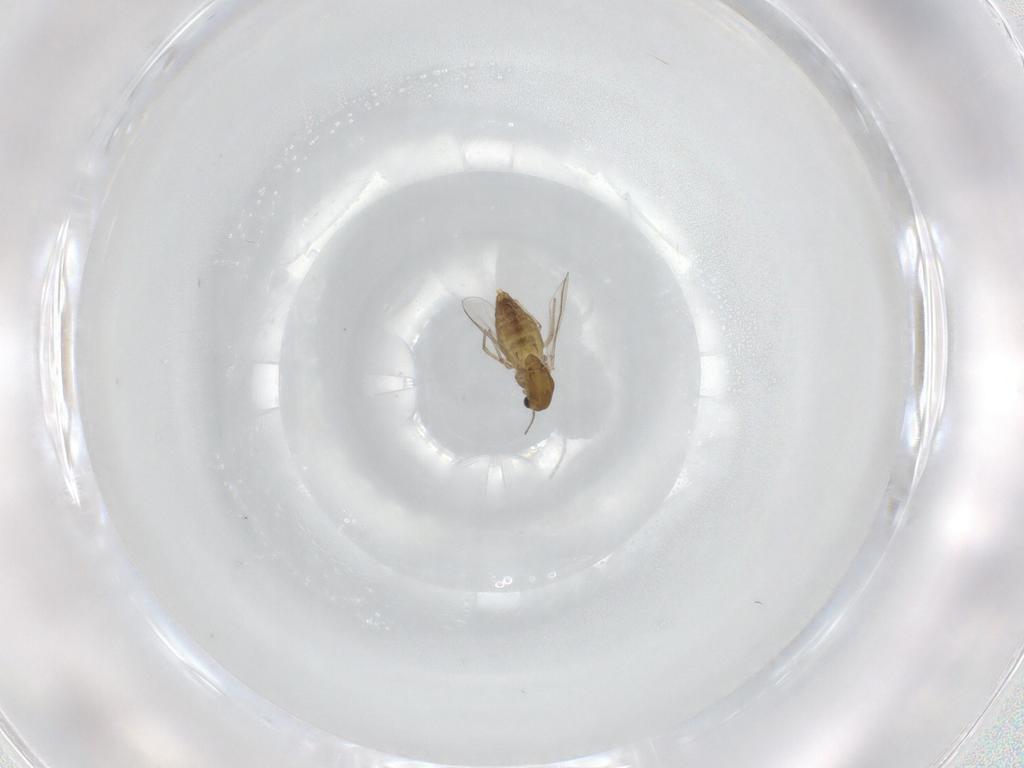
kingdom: Animalia
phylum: Arthropoda
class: Insecta
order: Diptera
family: Chironomidae
